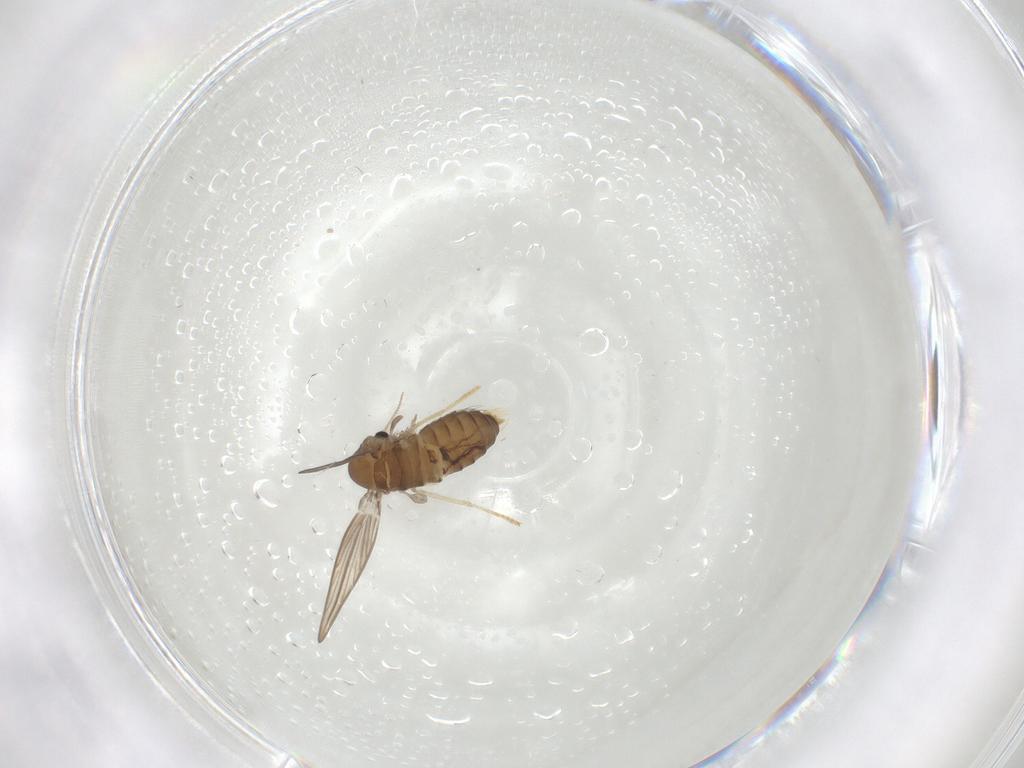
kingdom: Animalia
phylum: Arthropoda
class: Insecta
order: Diptera
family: Psychodidae
